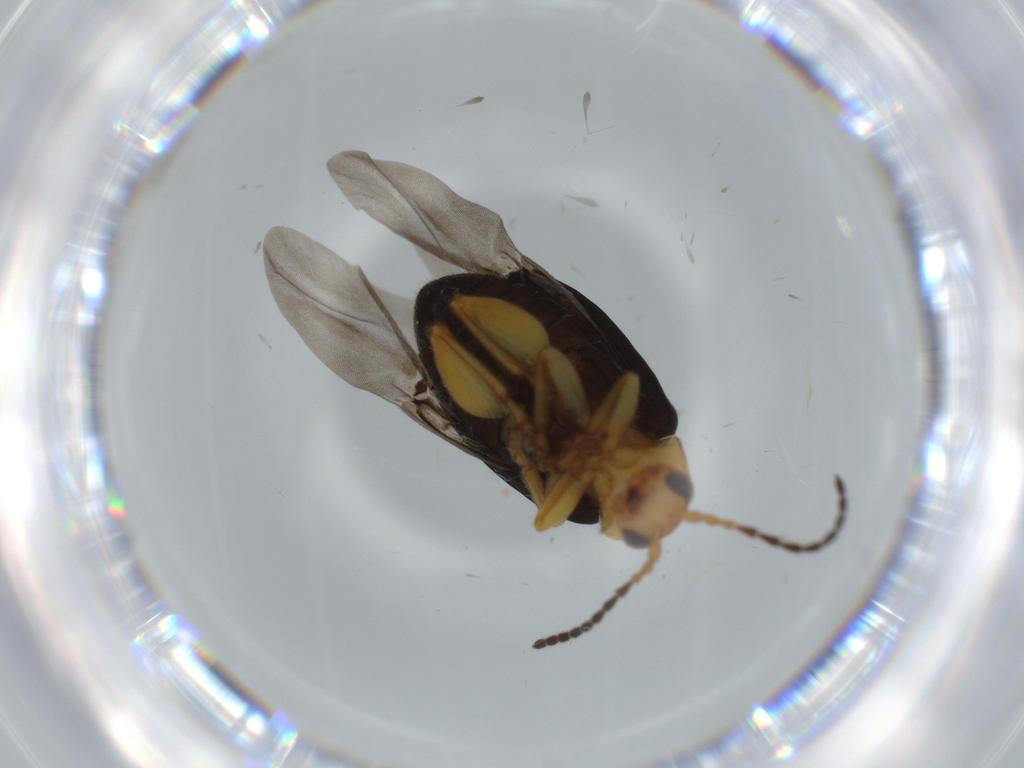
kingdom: Animalia
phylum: Arthropoda
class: Insecta
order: Coleoptera
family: Chrysomelidae
